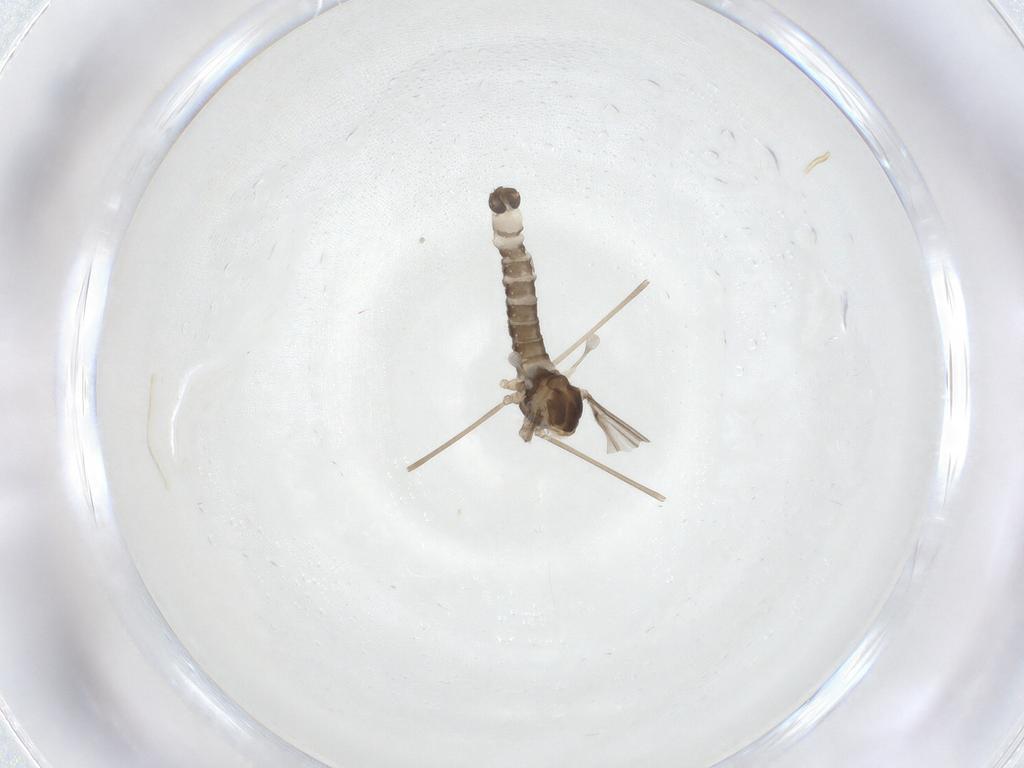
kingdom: Animalia
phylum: Arthropoda
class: Insecta
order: Diptera
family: Cecidomyiidae
